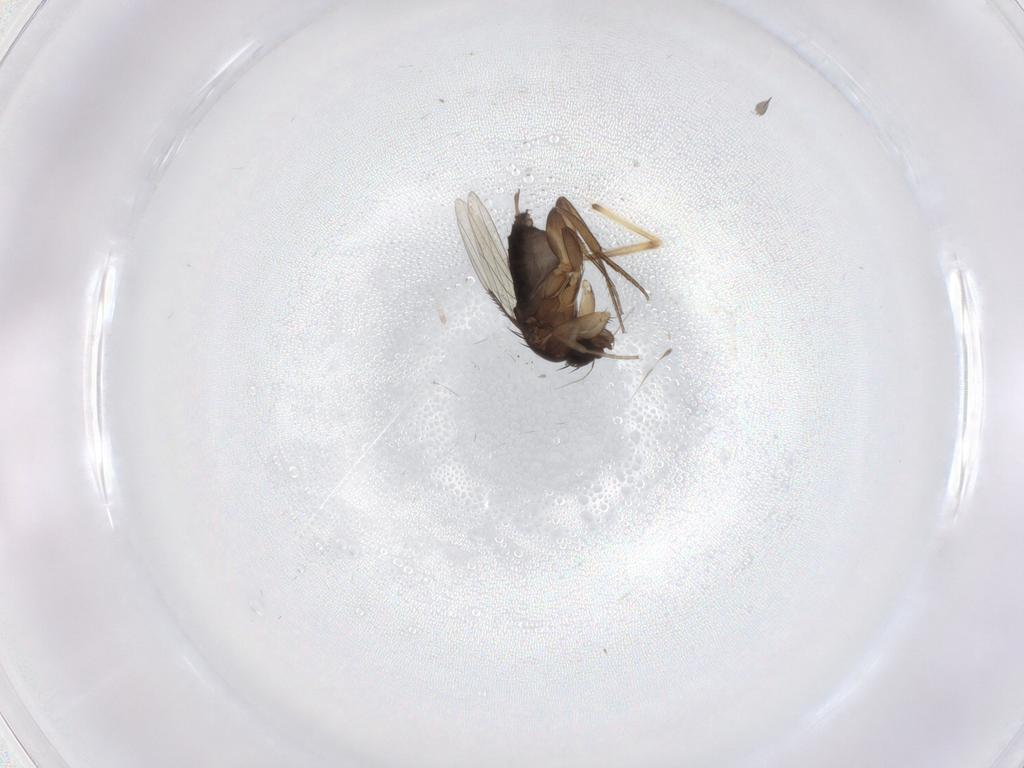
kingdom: Animalia
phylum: Arthropoda
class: Insecta
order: Diptera
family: Chironomidae
